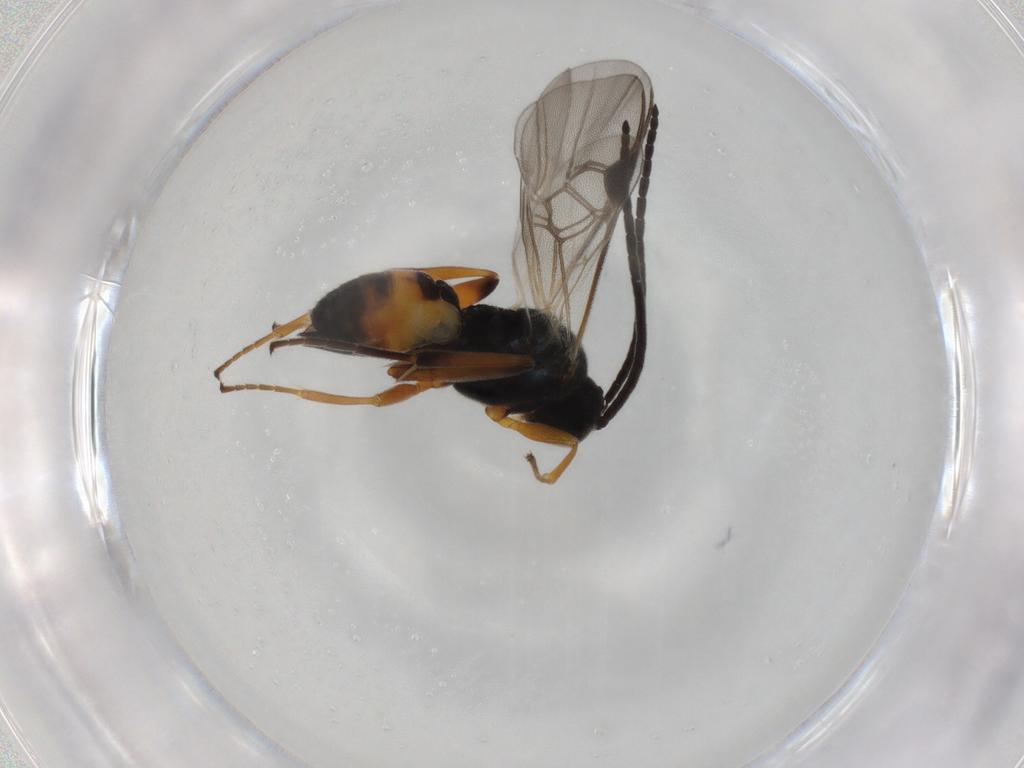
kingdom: Animalia
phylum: Arthropoda
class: Insecta
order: Hymenoptera
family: Braconidae
